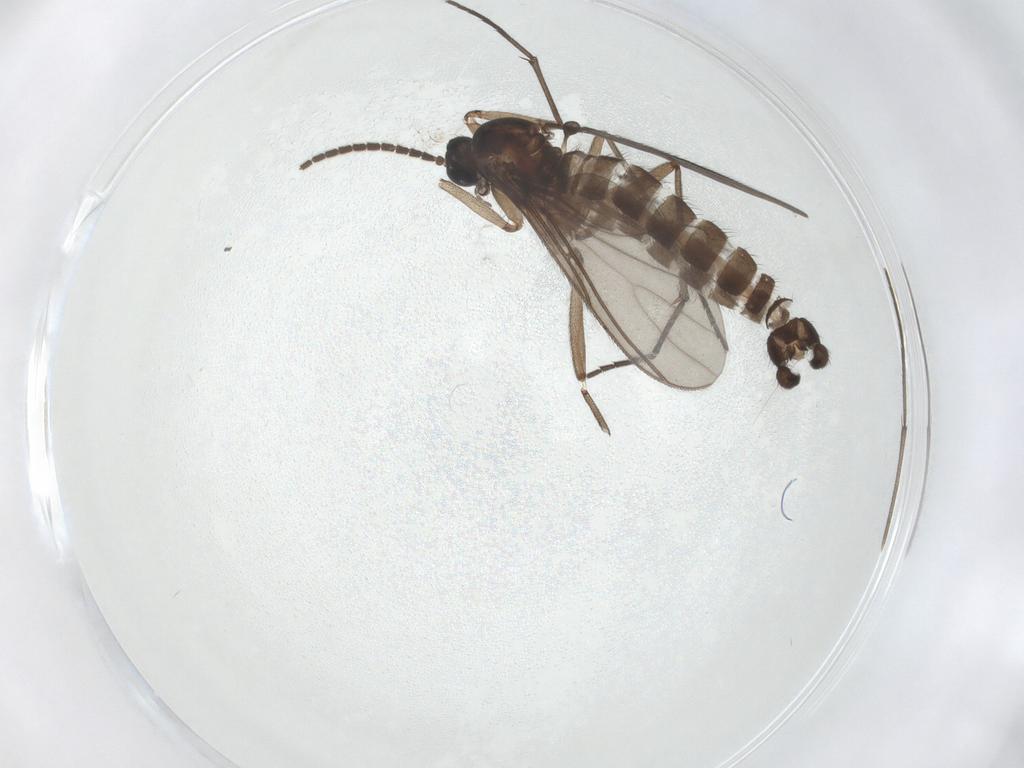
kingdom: Animalia
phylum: Arthropoda
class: Insecta
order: Diptera
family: Sciaridae
